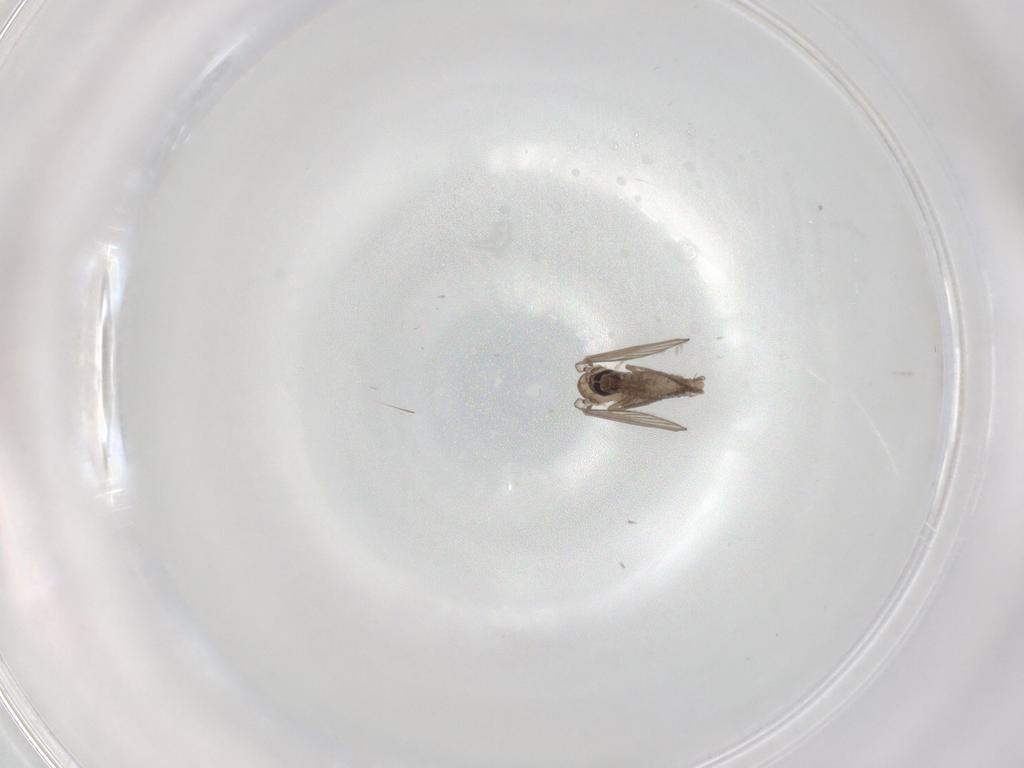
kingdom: Animalia
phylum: Arthropoda
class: Insecta
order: Diptera
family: Psychodidae
